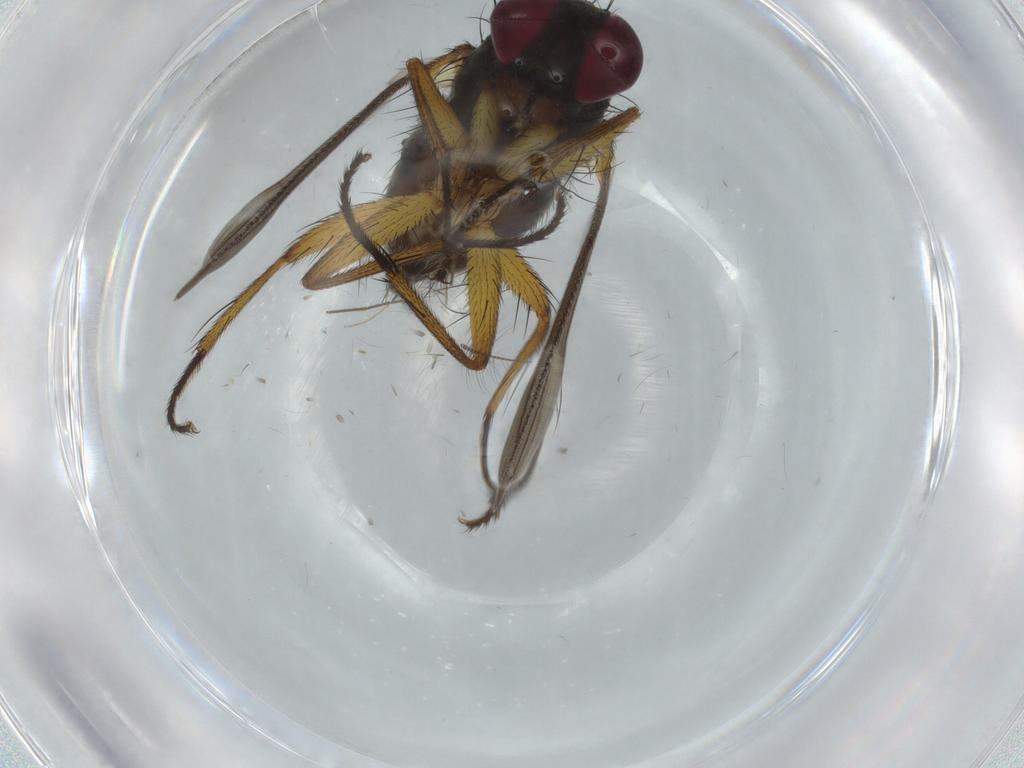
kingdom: Animalia
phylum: Arthropoda
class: Insecta
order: Diptera
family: Muscidae
